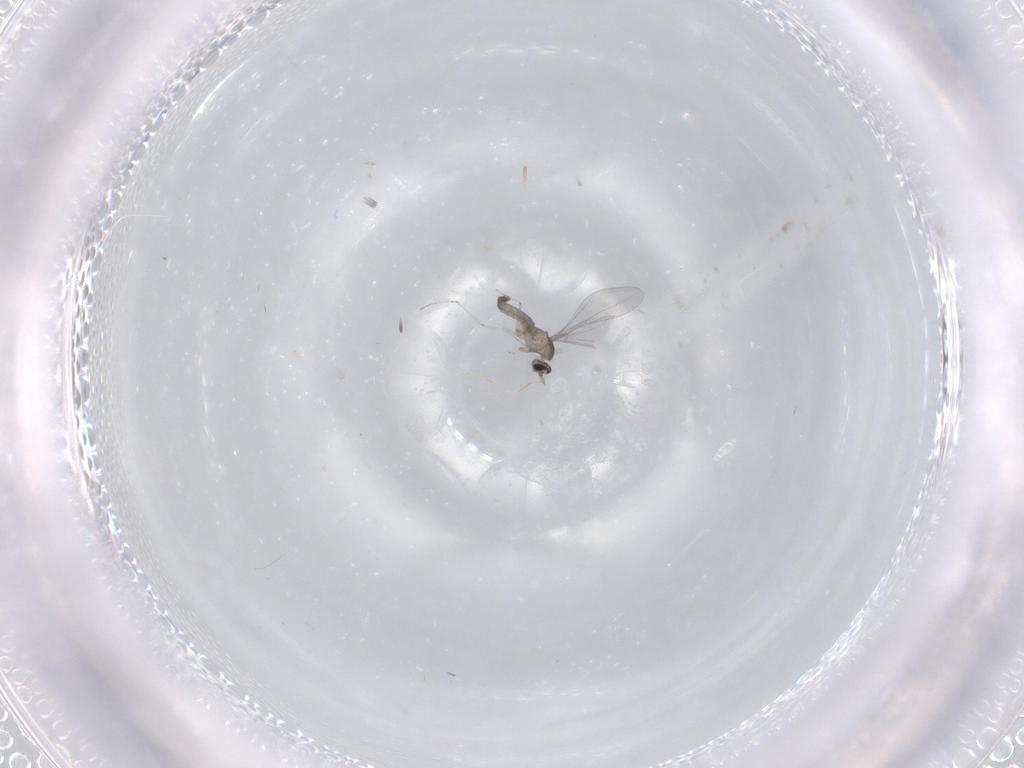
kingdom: Animalia
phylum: Arthropoda
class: Insecta
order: Diptera
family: Cecidomyiidae
